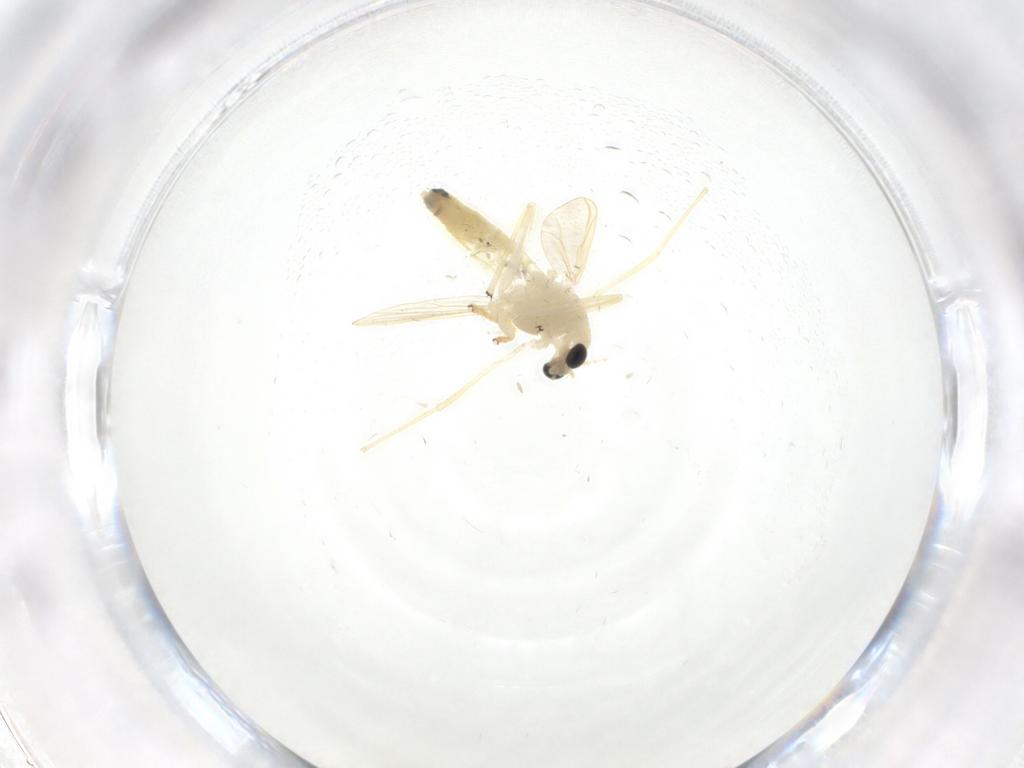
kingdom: Animalia
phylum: Arthropoda
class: Insecta
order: Diptera
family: Chironomidae
